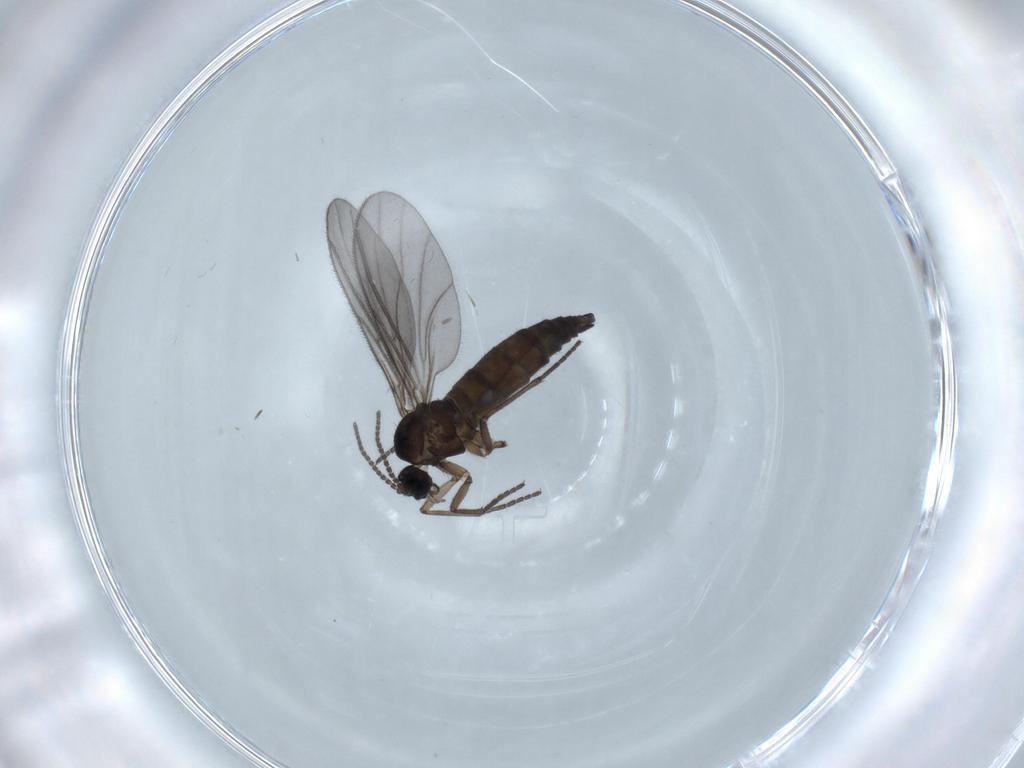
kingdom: Animalia
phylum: Arthropoda
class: Insecta
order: Diptera
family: Sciaridae
